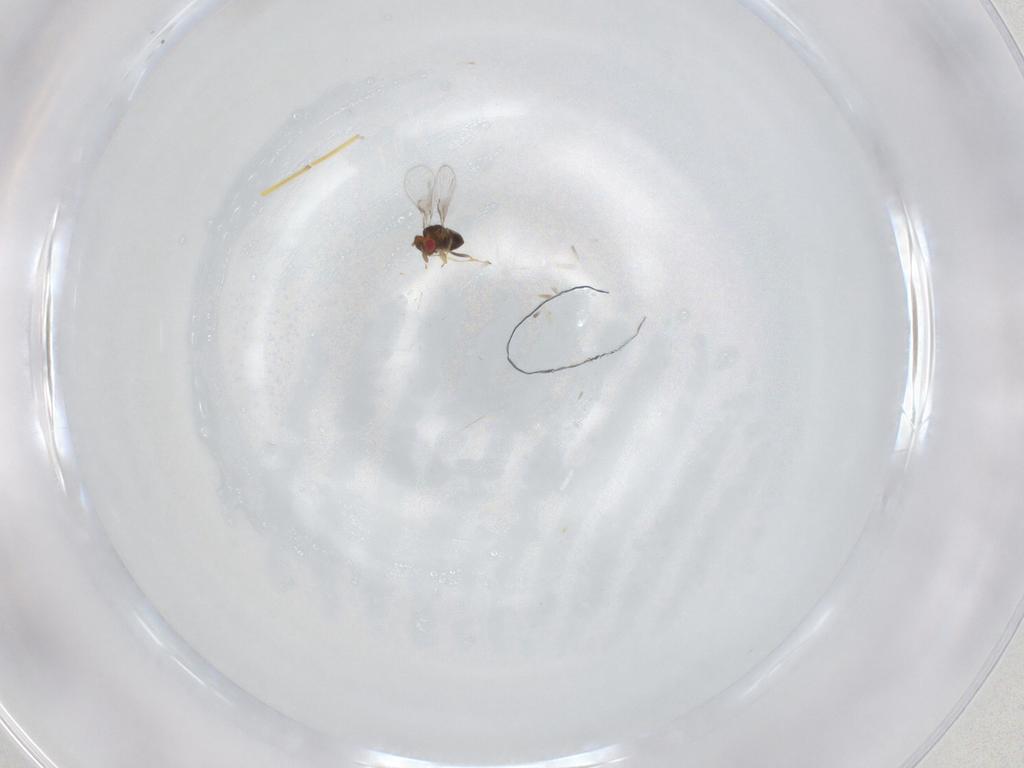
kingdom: Animalia
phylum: Arthropoda
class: Insecta
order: Hymenoptera
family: Trichogrammatidae
